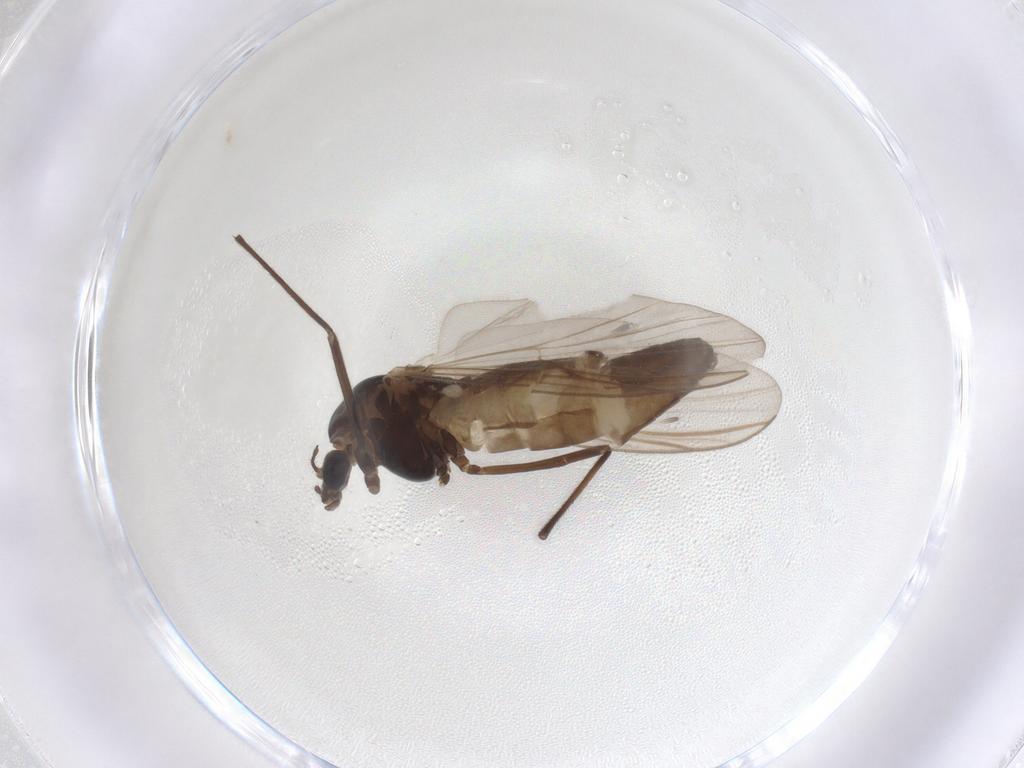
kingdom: Animalia
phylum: Arthropoda
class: Insecta
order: Diptera
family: Chironomidae
